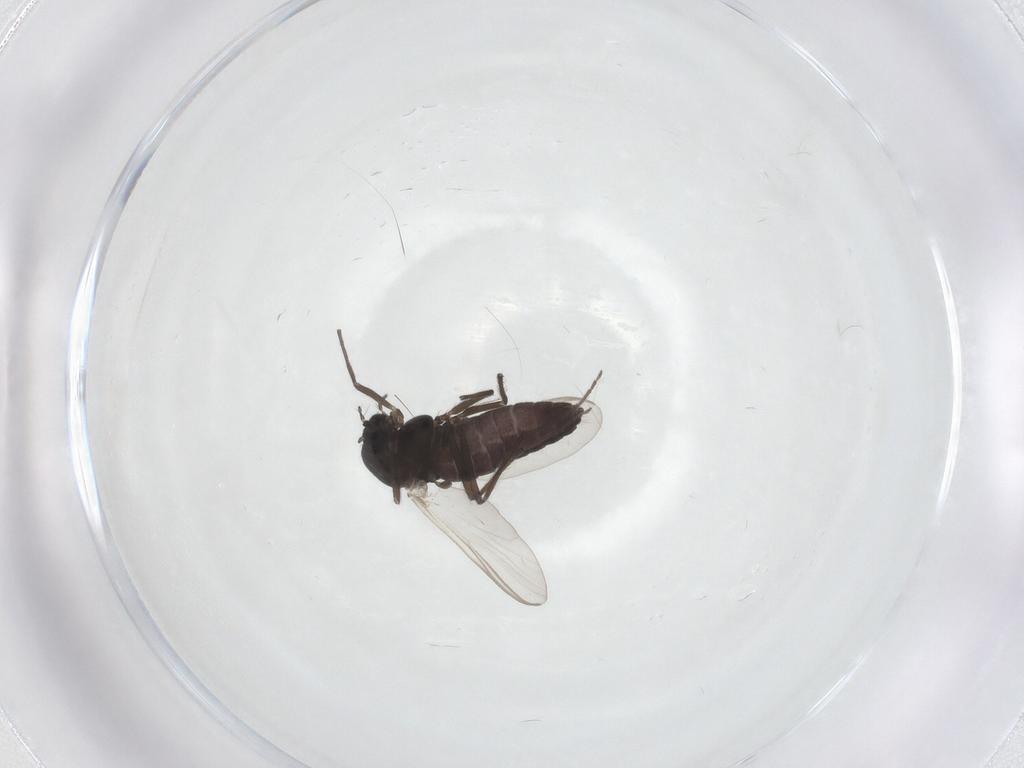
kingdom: Animalia
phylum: Arthropoda
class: Insecta
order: Diptera
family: Chironomidae
